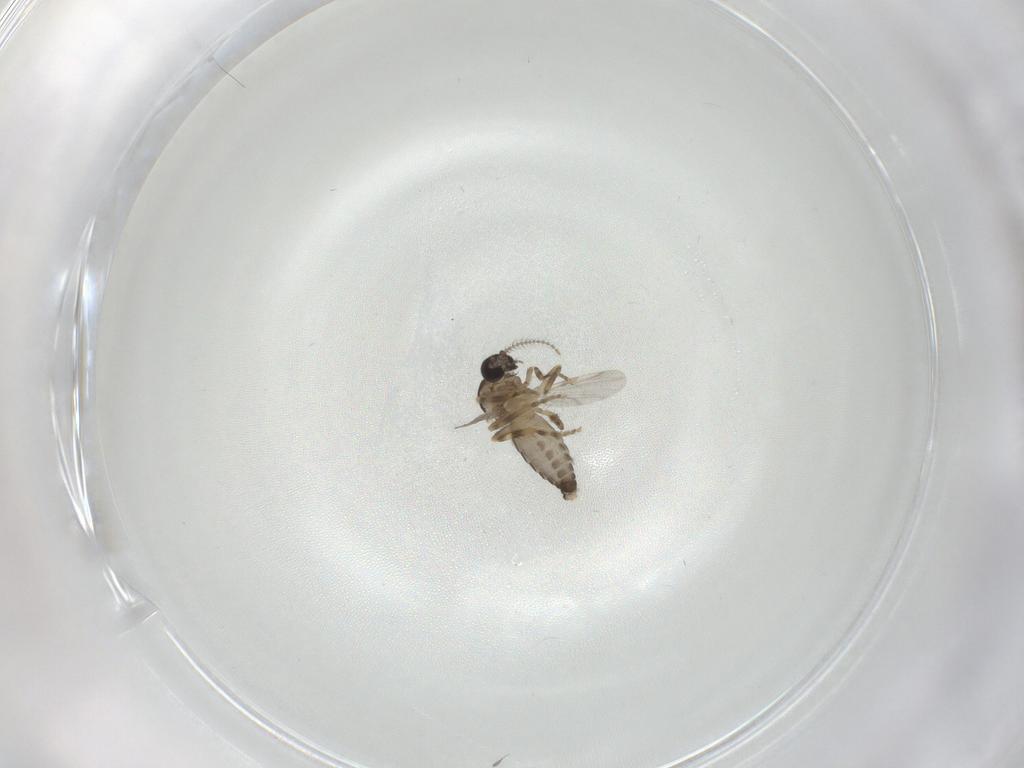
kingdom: Animalia
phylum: Arthropoda
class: Insecta
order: Diptera
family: Ceratopogonidae
